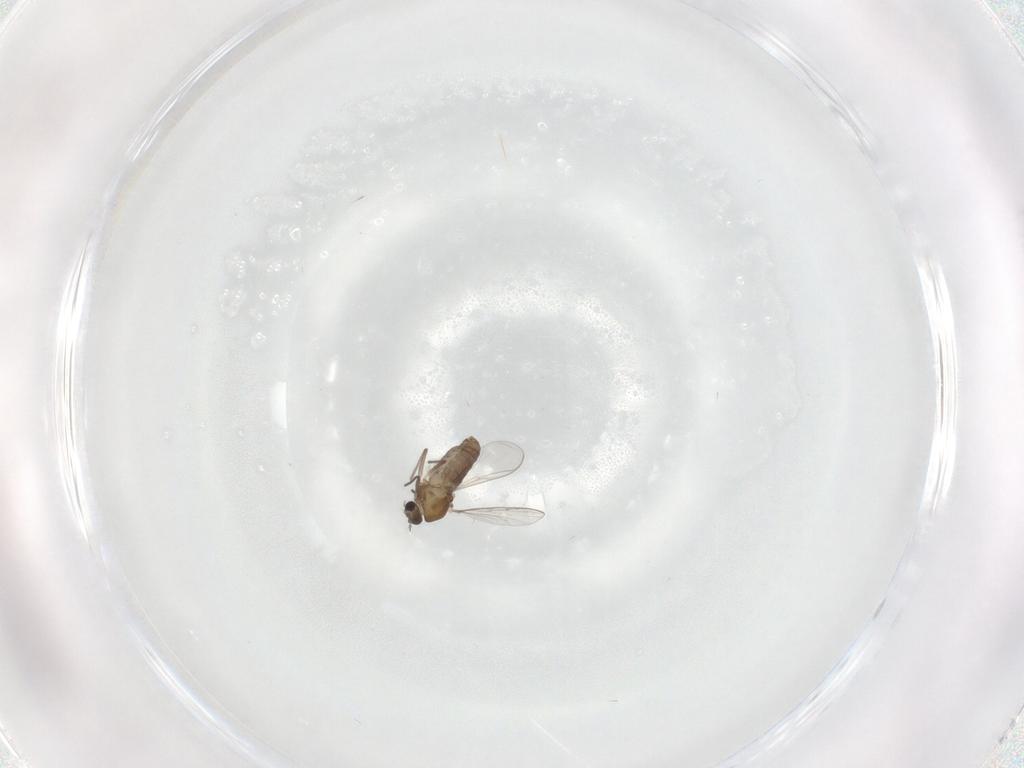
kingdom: Animalia
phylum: Arthropoda
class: Insecta
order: Diptera
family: Chironomidae
